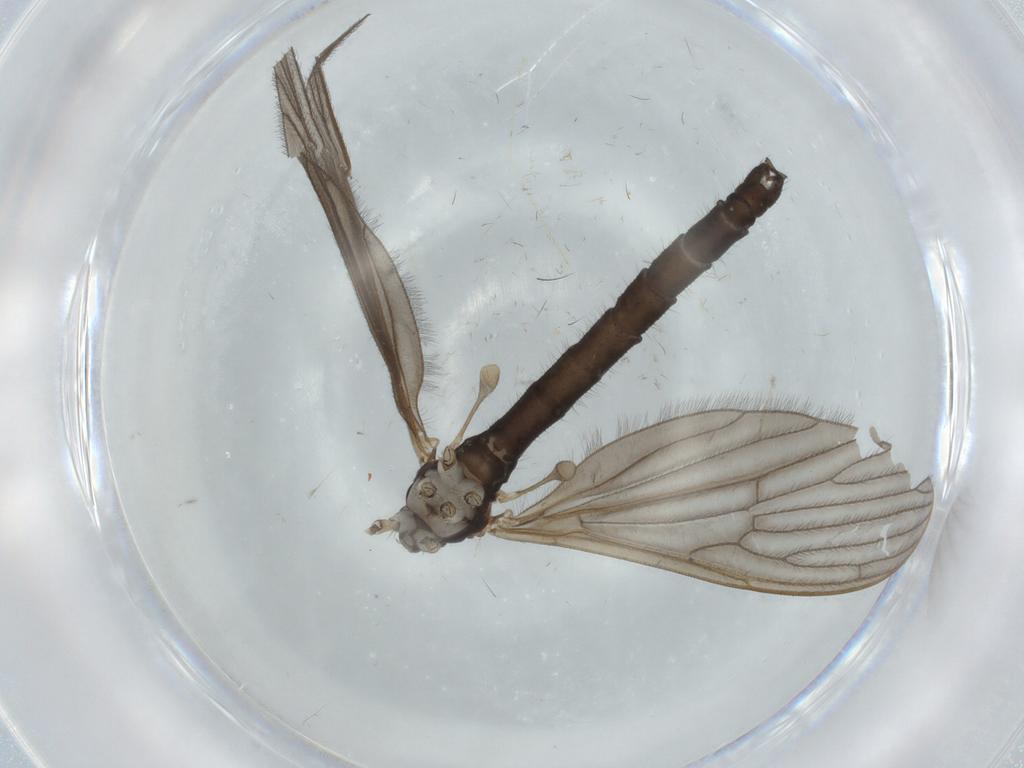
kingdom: Animalia
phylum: Arthropoda
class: Insecta
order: Diptera
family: Limoniidae
